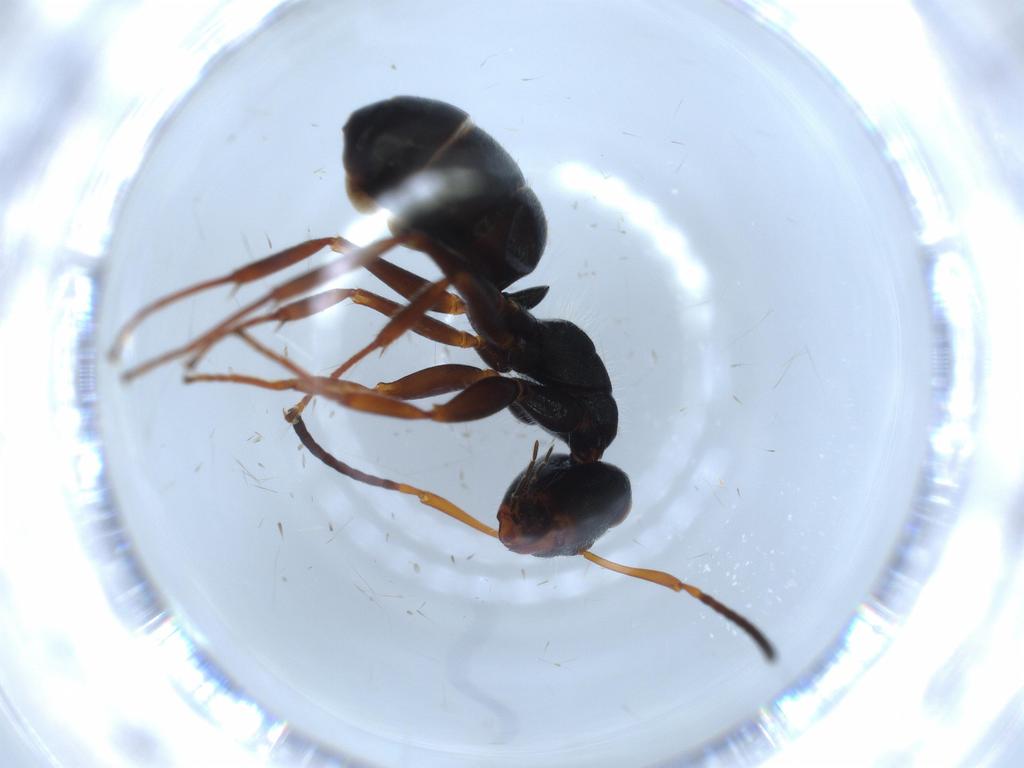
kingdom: Animalia
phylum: Arthropoda
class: Insecta
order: Hymenoptera
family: Formicidae
